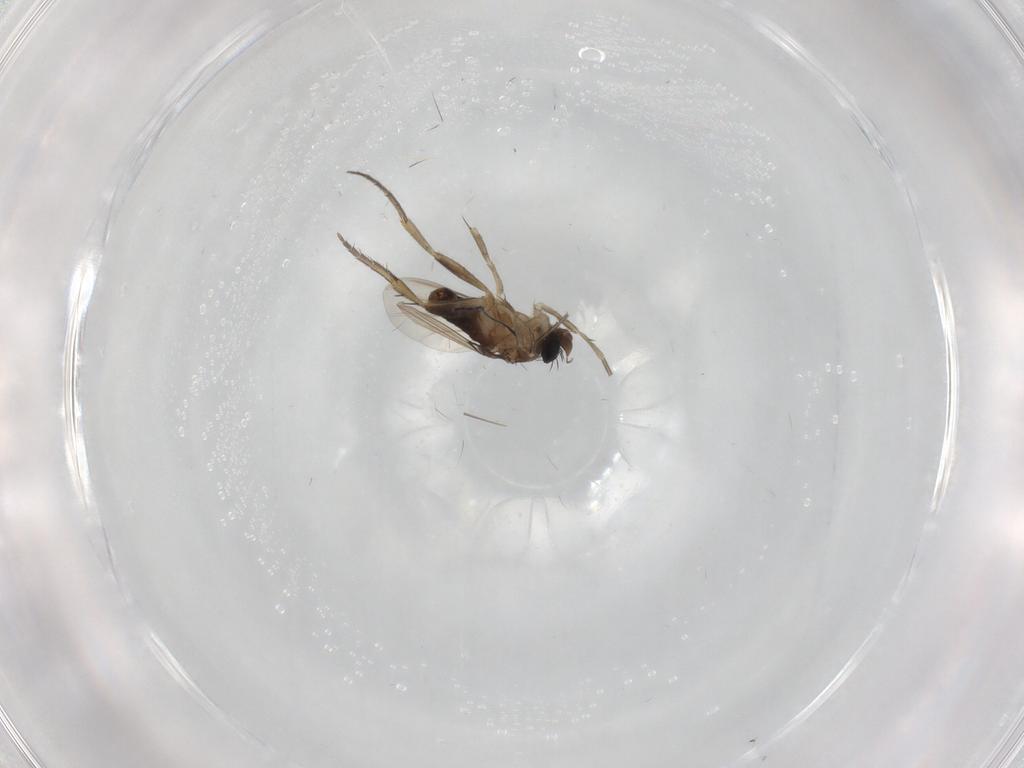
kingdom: Animalia
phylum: Arthropoda
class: Insecta
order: Diptera
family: Phoridae
